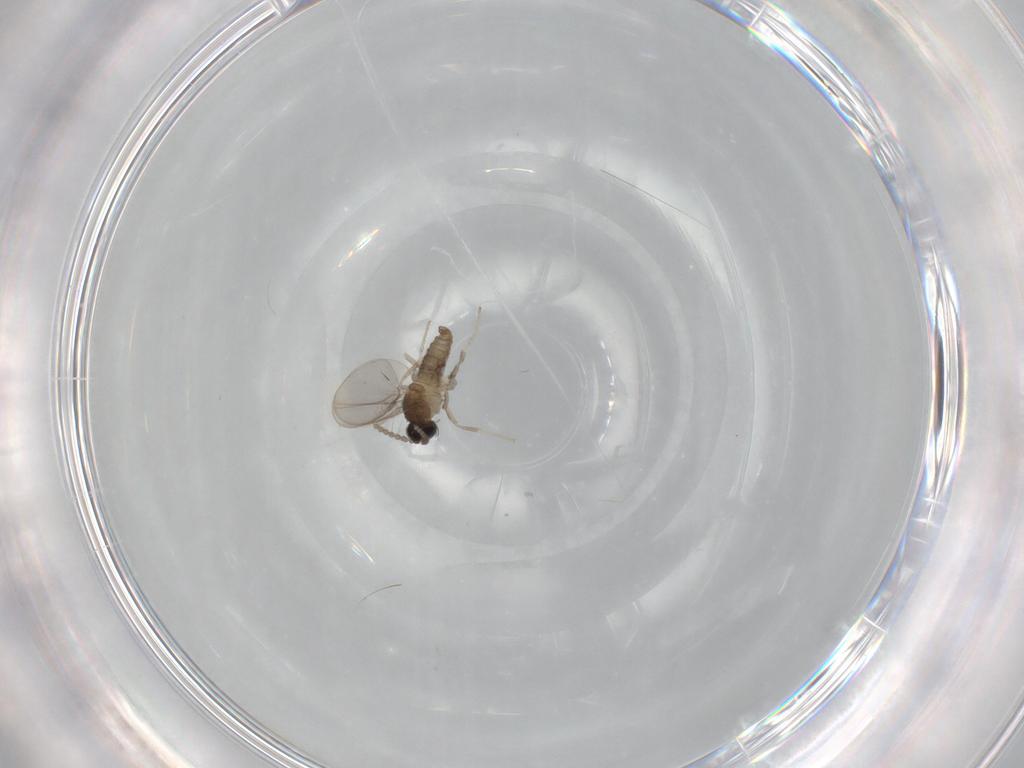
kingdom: Animalia
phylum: Arthropoda
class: Insecta
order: Diptera
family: Cecidomyiidae
